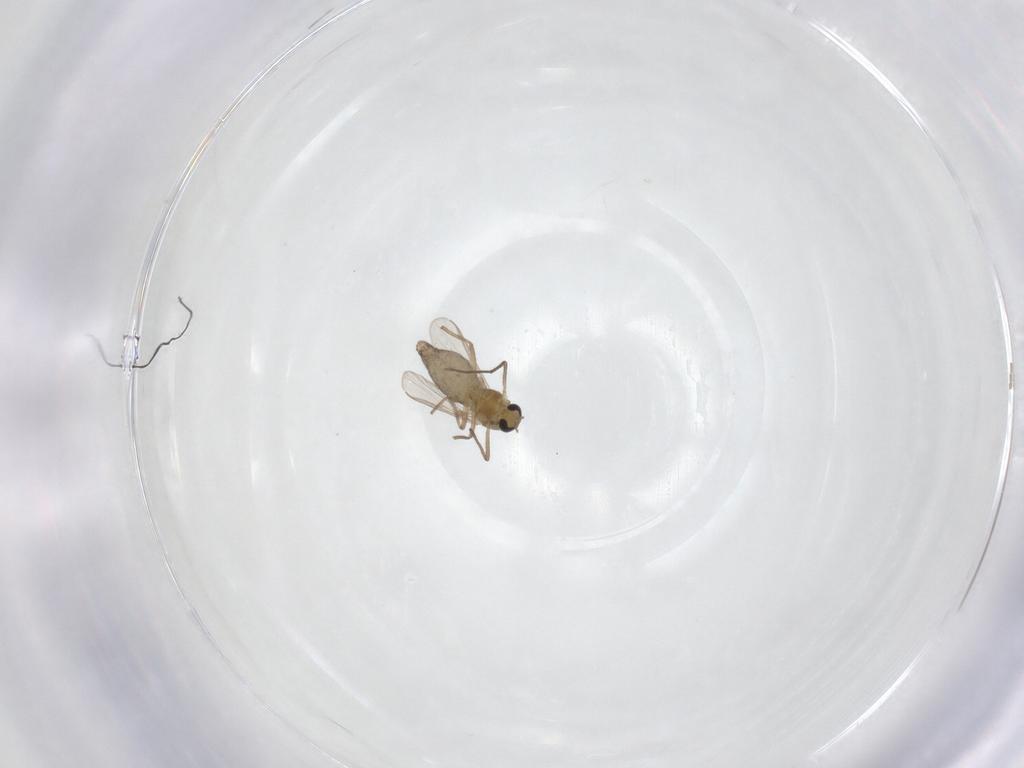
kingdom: Animalia
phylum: Arthropoda
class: Insecta
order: Diptera
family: Chironomidae
